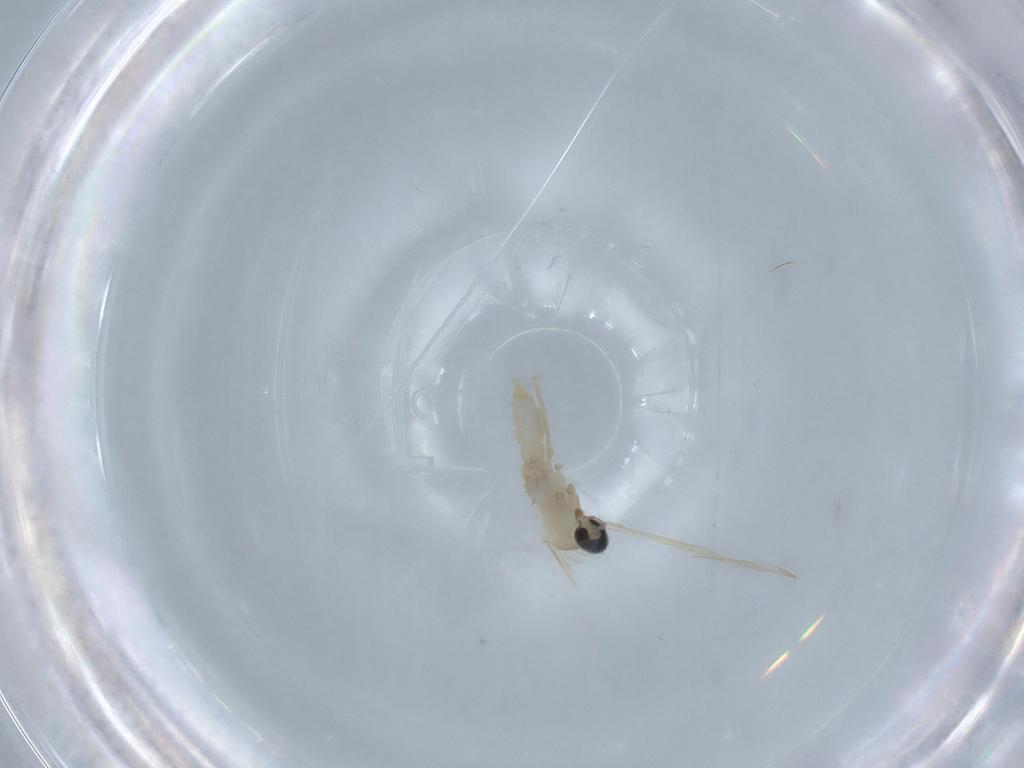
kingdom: Animalia
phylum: Arthropoda
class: Insecta
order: Diptera
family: Cecidomyiidae
